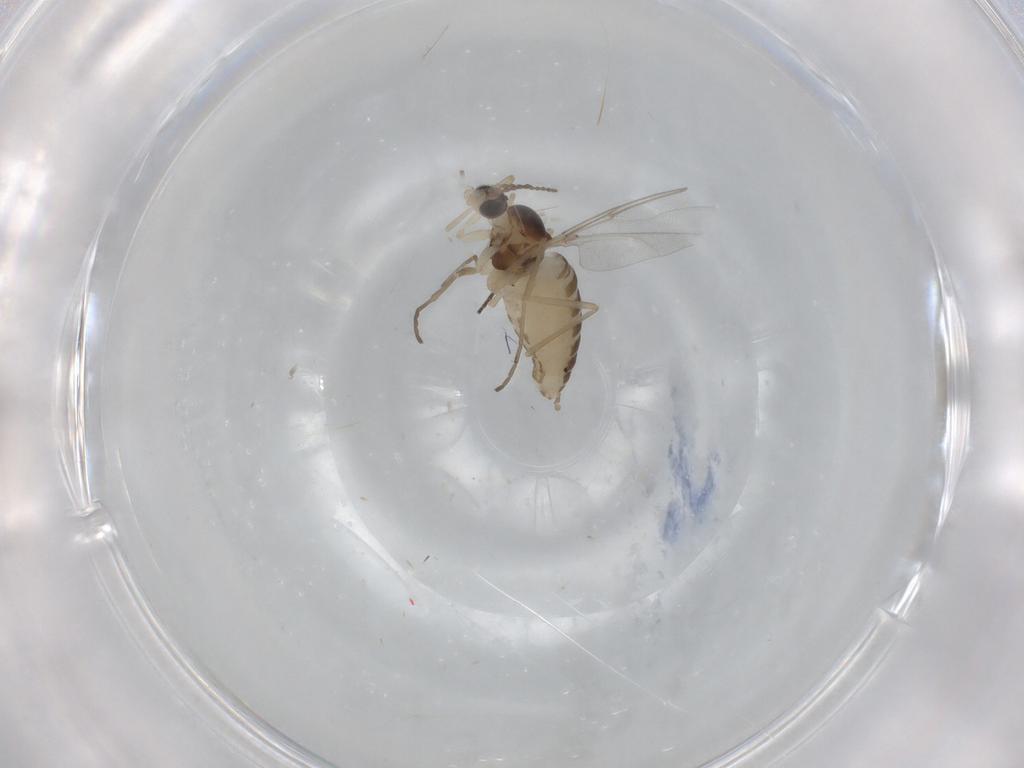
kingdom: Animalia
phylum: Arthropoda
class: Insecta
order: Diptera
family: Cecidomyiidae
